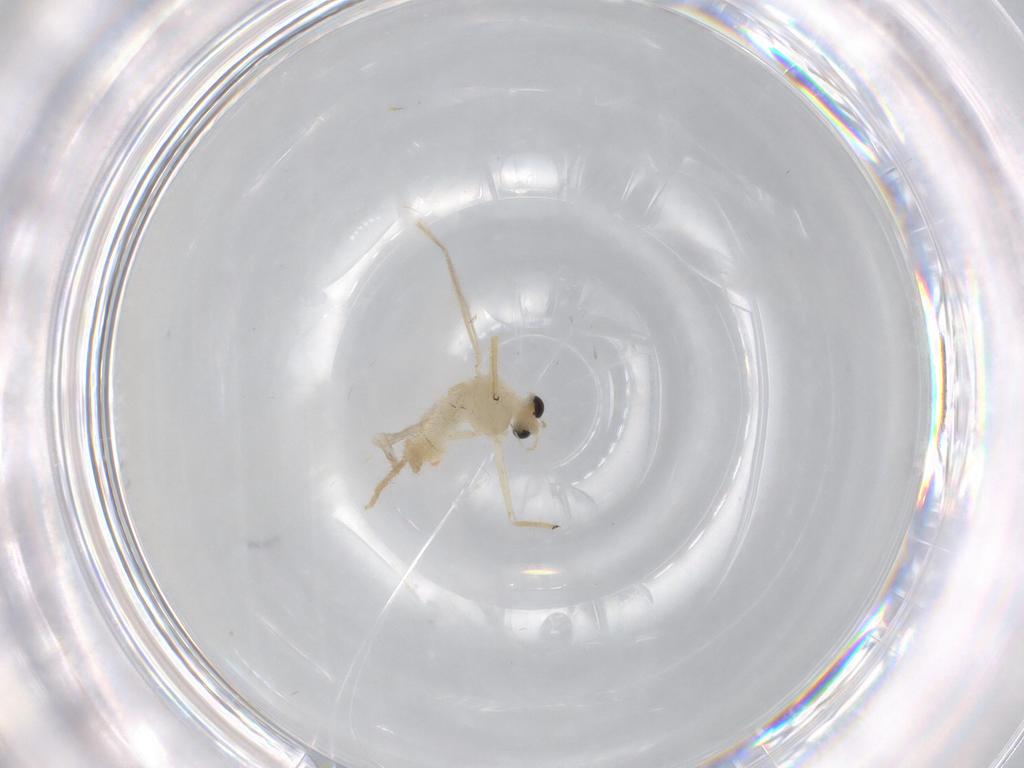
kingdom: Animalia
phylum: Arthropoda
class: Insecta
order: Diptera
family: Chironomidae
